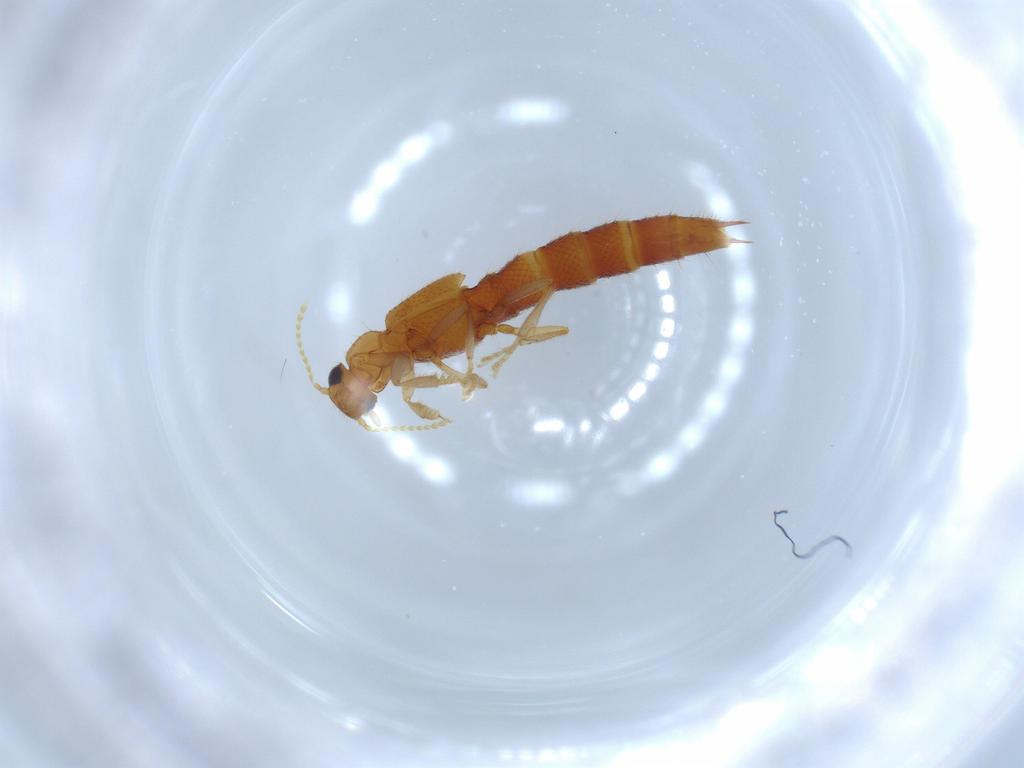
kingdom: Animalia
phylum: Arthropoda
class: Insecta
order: Coleoptera
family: Staphylinidae
